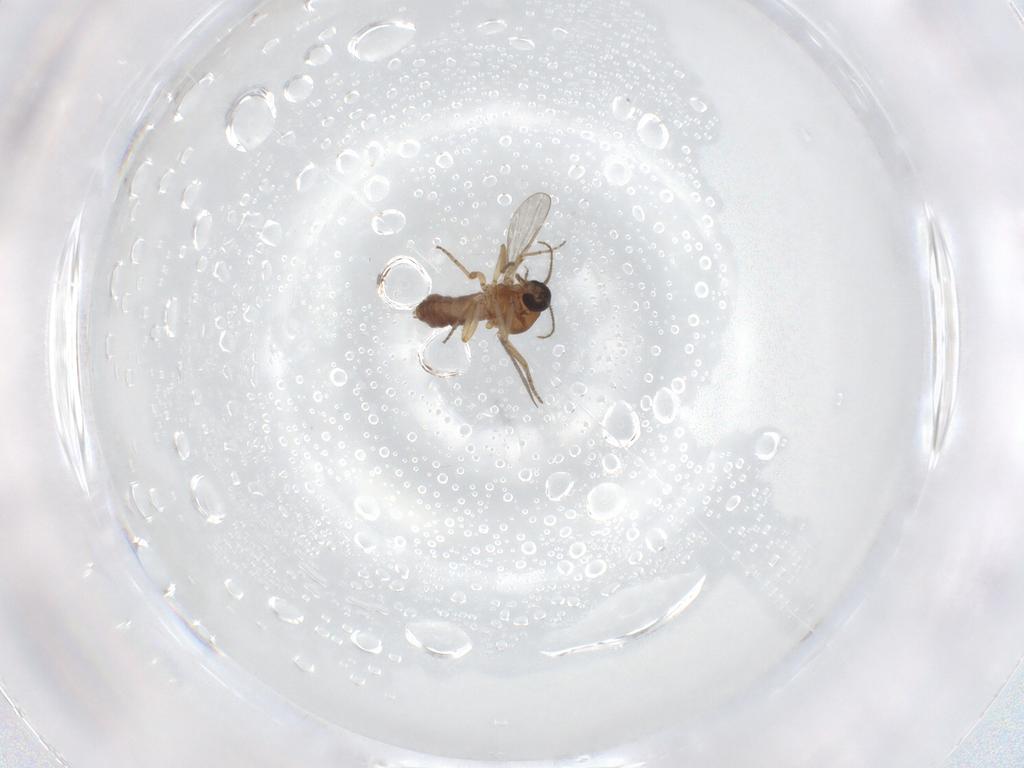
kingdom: Animalia
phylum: Arthropoda
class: Insecta
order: Diptera
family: Ceratopogonidae
